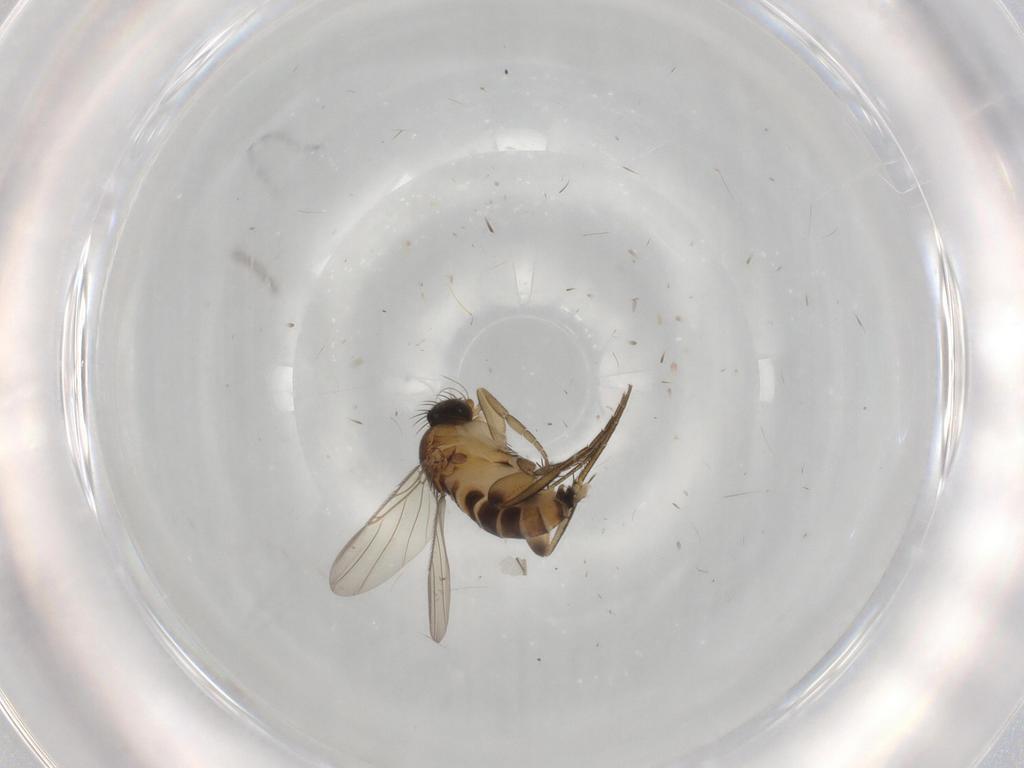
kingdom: Animalia
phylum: Arthropoda
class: Insecta
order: Diptera
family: Phoridae
